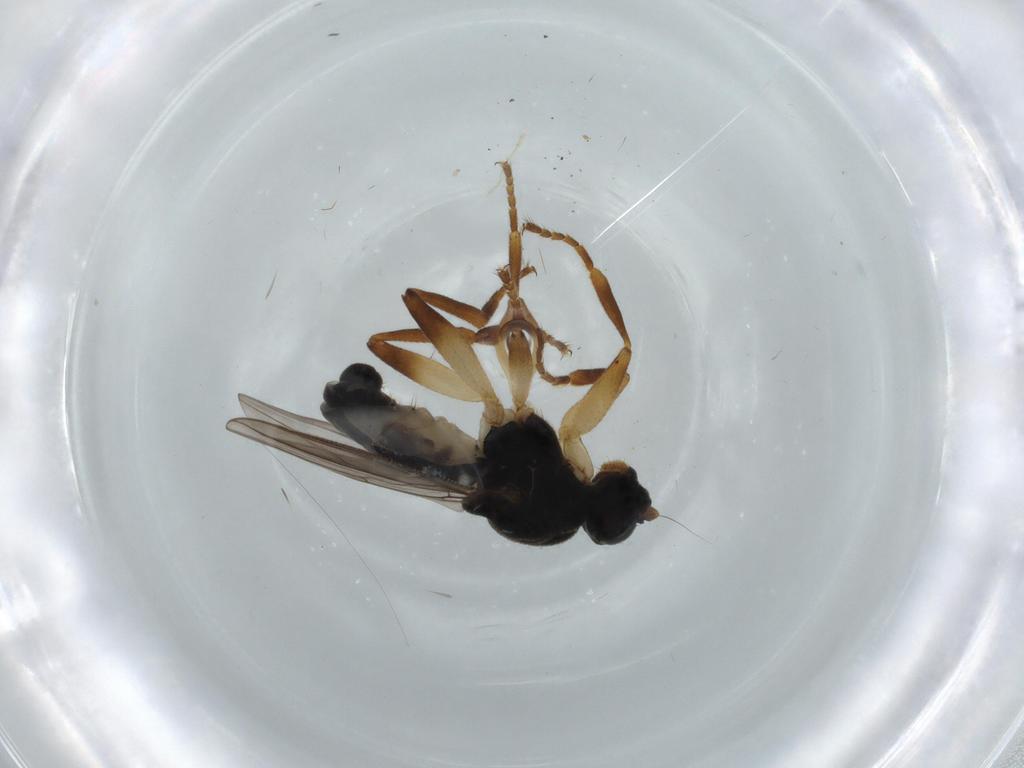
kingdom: Animalia
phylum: Arthropoda
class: Insecta
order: Diptera
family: Sphaeroceridae
